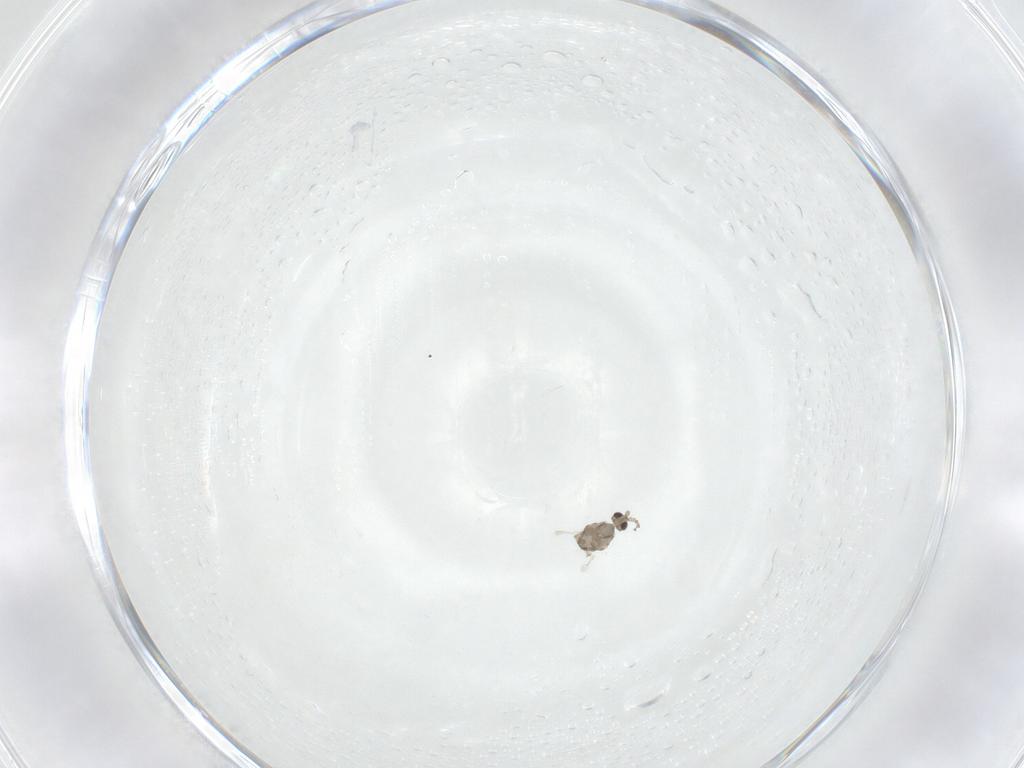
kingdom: Animalia
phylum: Arthropoda
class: Insecta
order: Diptera
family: Cecidomyiidae
